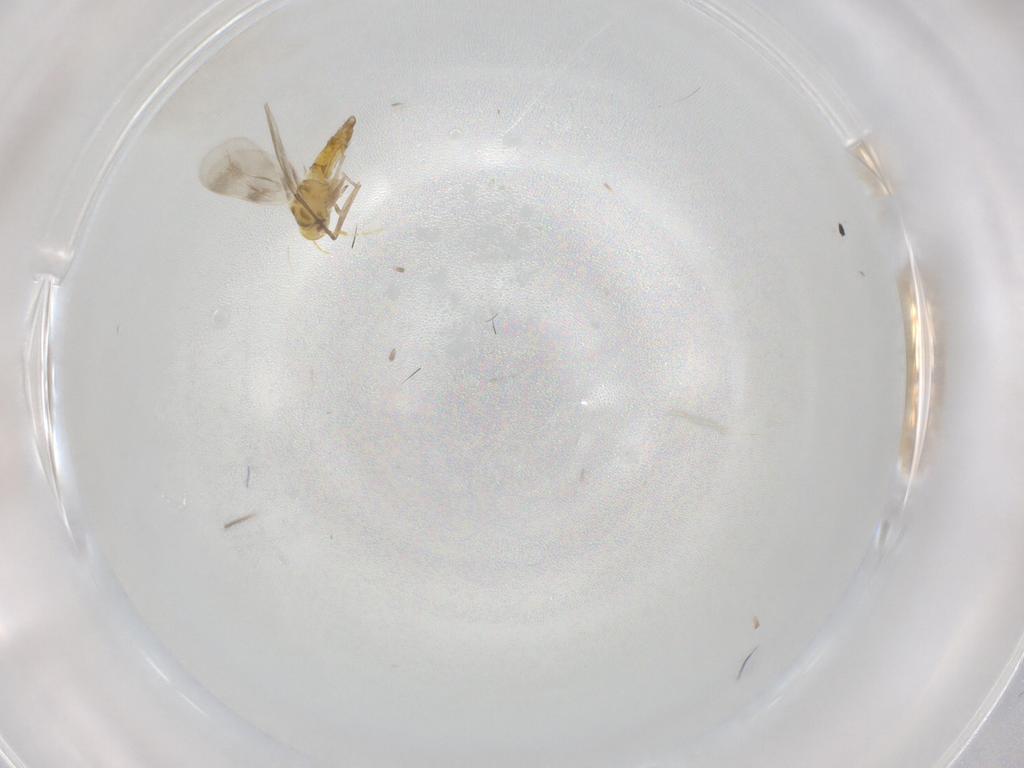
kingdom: Animalia
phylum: Arthropoda
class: Insecta
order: Hemiptera
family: Aleyrodidae
